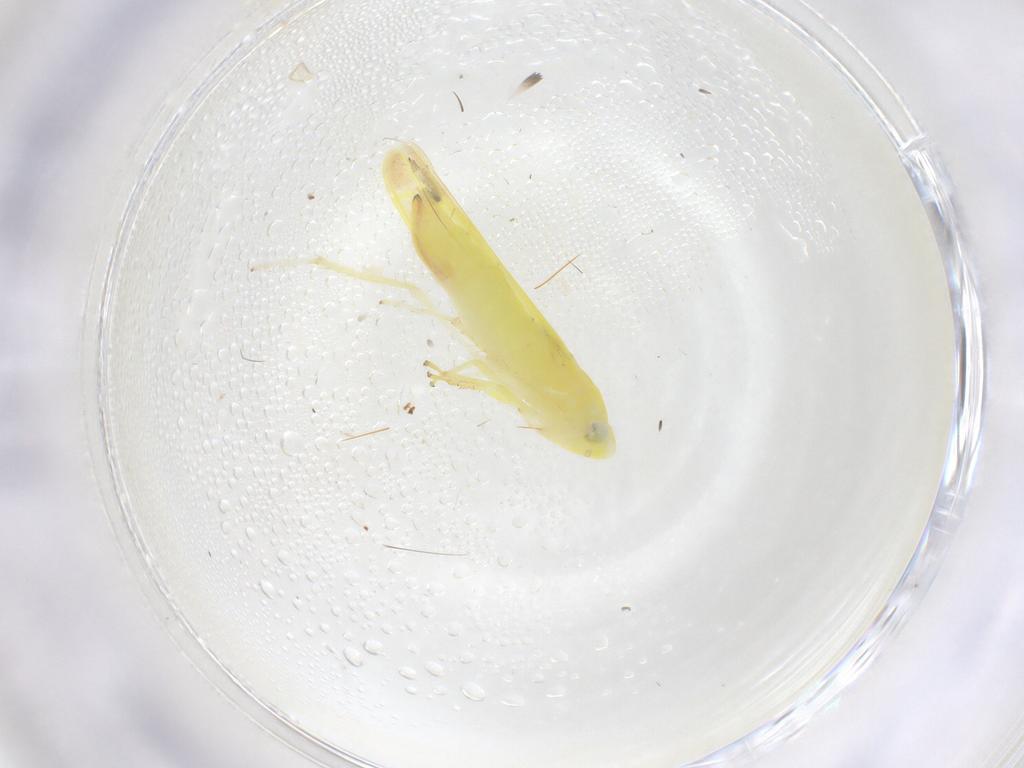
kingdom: Animalia
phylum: Arthropoda
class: Insecta
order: Hemiptera
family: Cicadellidae
